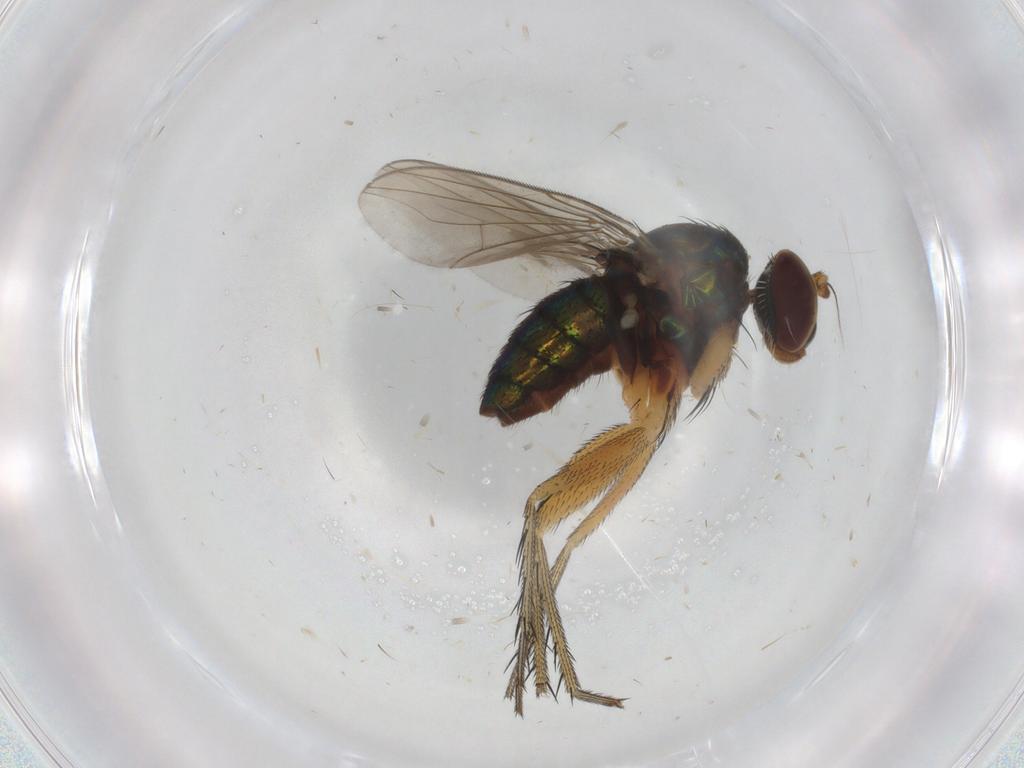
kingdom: Animalia
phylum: Arthropoda
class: Insecta
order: Diptera
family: Dolichopodidae
